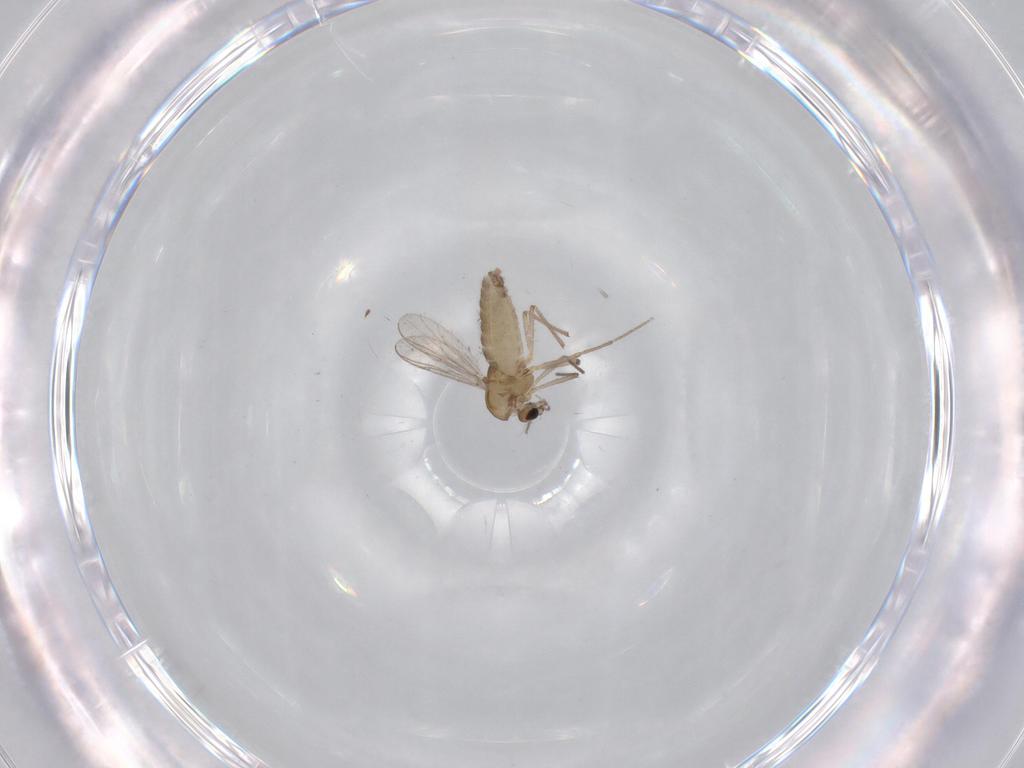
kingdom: Animalia
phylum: Arthropoda
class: Insecta
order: Diptera
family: Chironomidae
